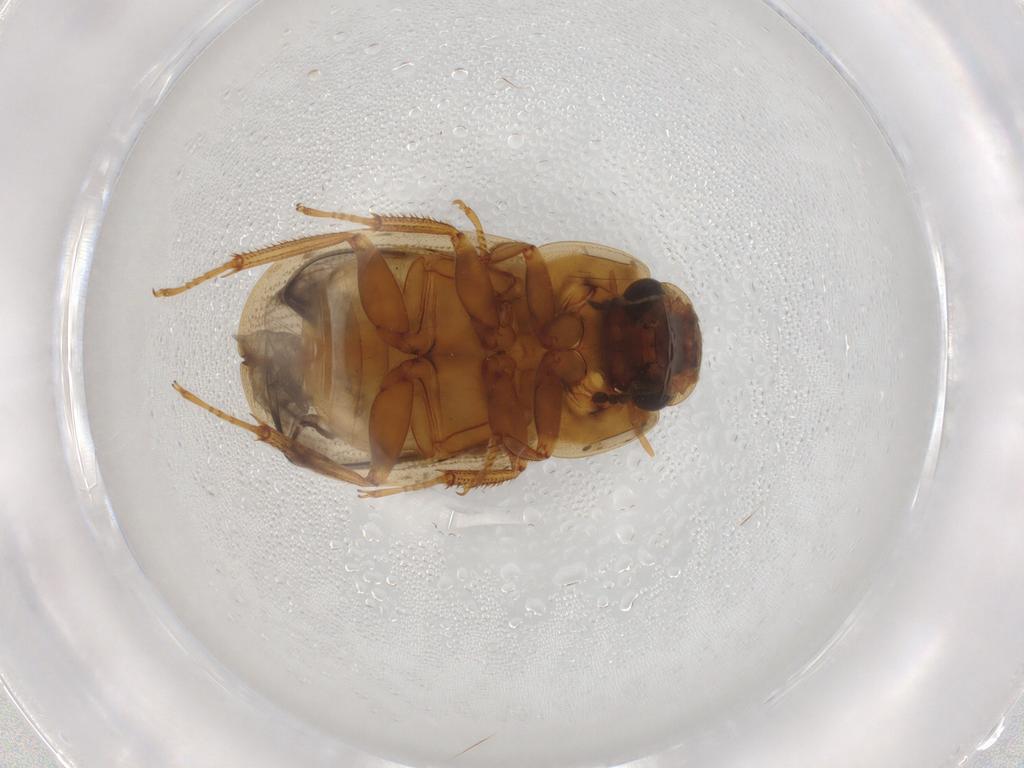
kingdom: Animalia
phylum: Arthropoda
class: Insecta
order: Coleoptera
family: Hydrophilidae
